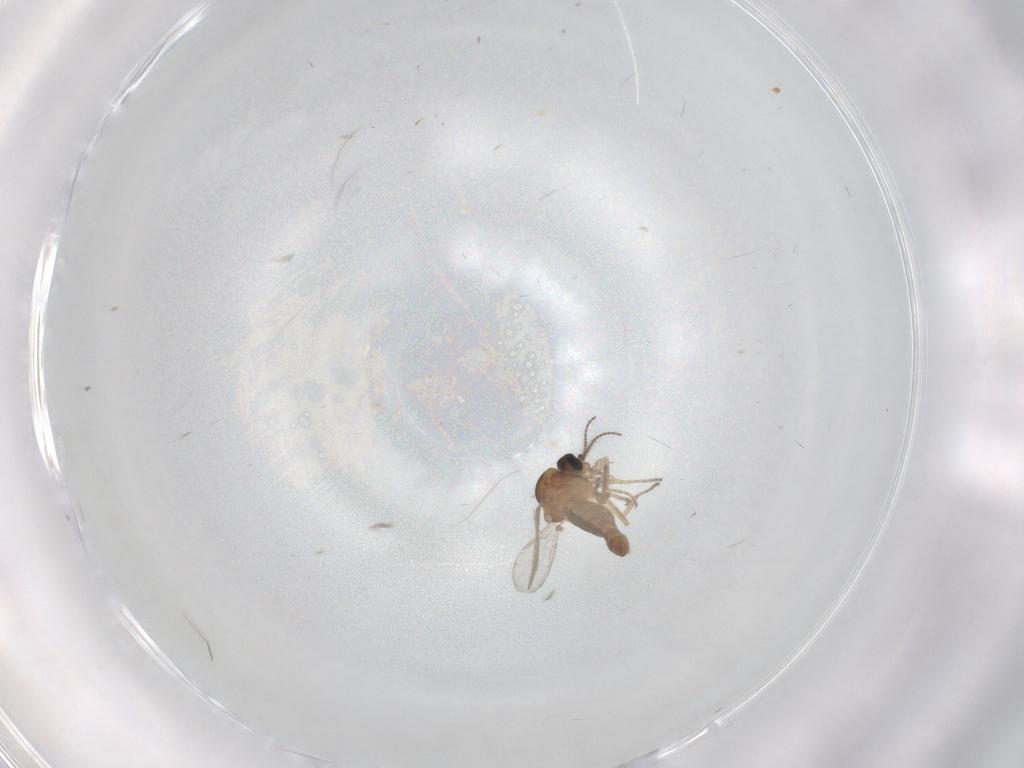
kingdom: Animalia
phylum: Arthropoda
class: Insecta
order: Diptera
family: Ceratopogonidae
